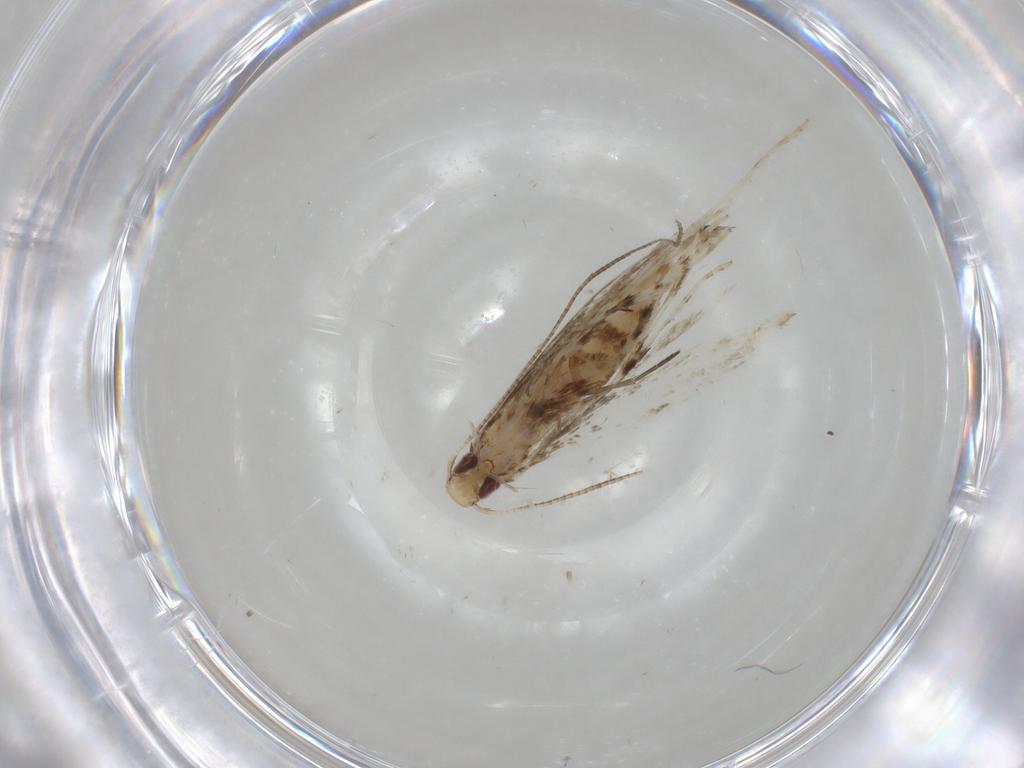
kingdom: Animalia
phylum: Arthropoda
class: Insecta
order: Lepidoptera
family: Gracillariidae
